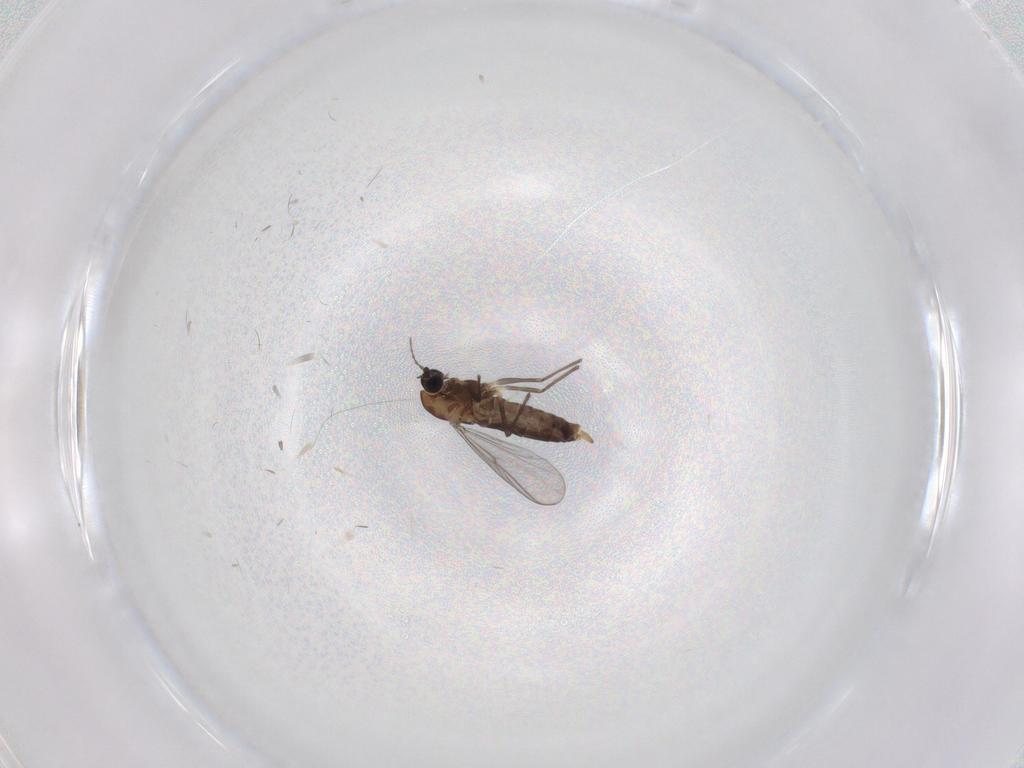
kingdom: Animalia
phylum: Arthropoda
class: Insecta
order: Diptera
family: Chironomidae
